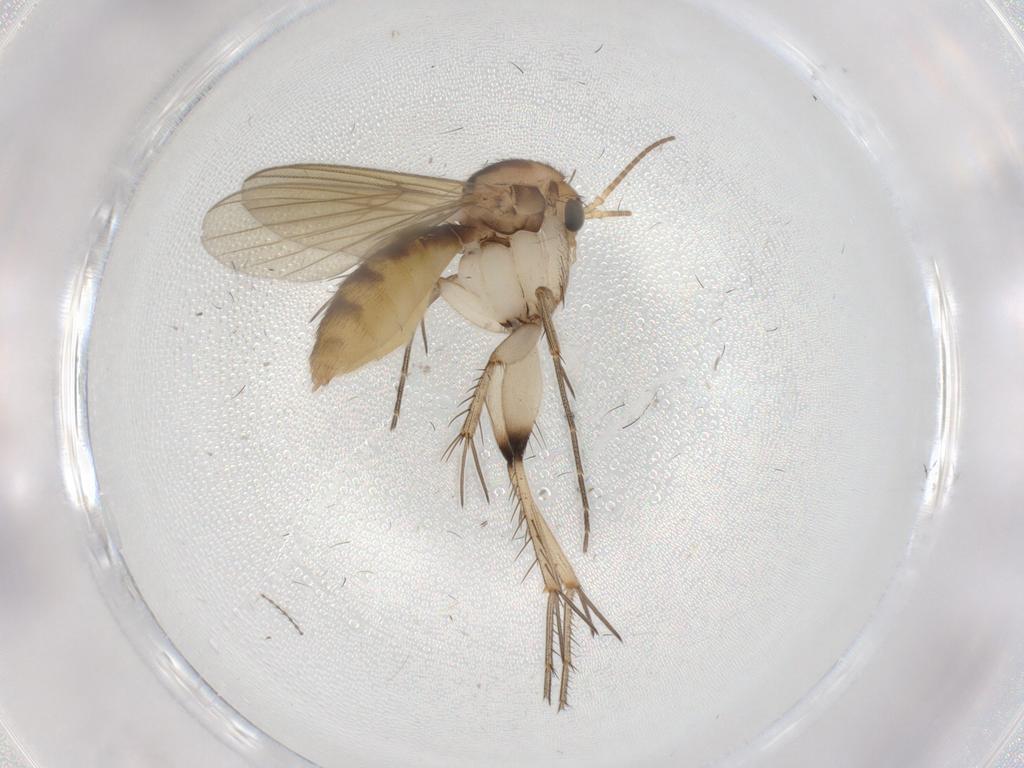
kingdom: Animalia
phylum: Arthropoda
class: Insecta
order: Diptera
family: Mycetophilidae
